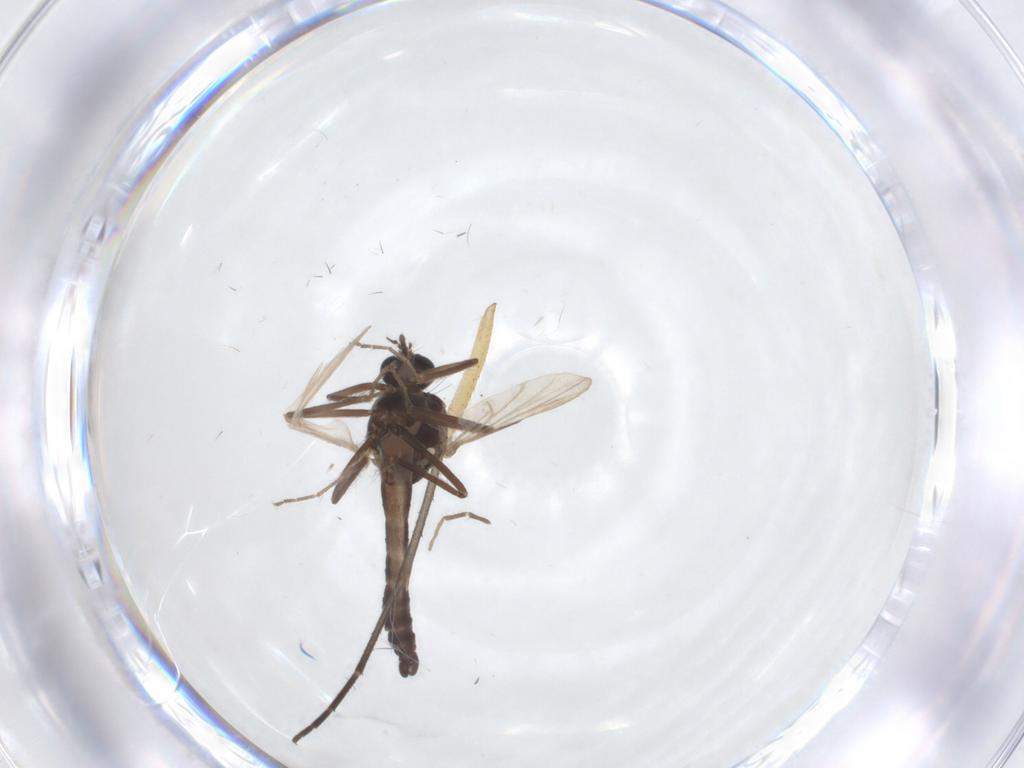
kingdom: Animalia
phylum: Arthropoda
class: Insecta
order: Diptera
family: Ceratopogonidae
